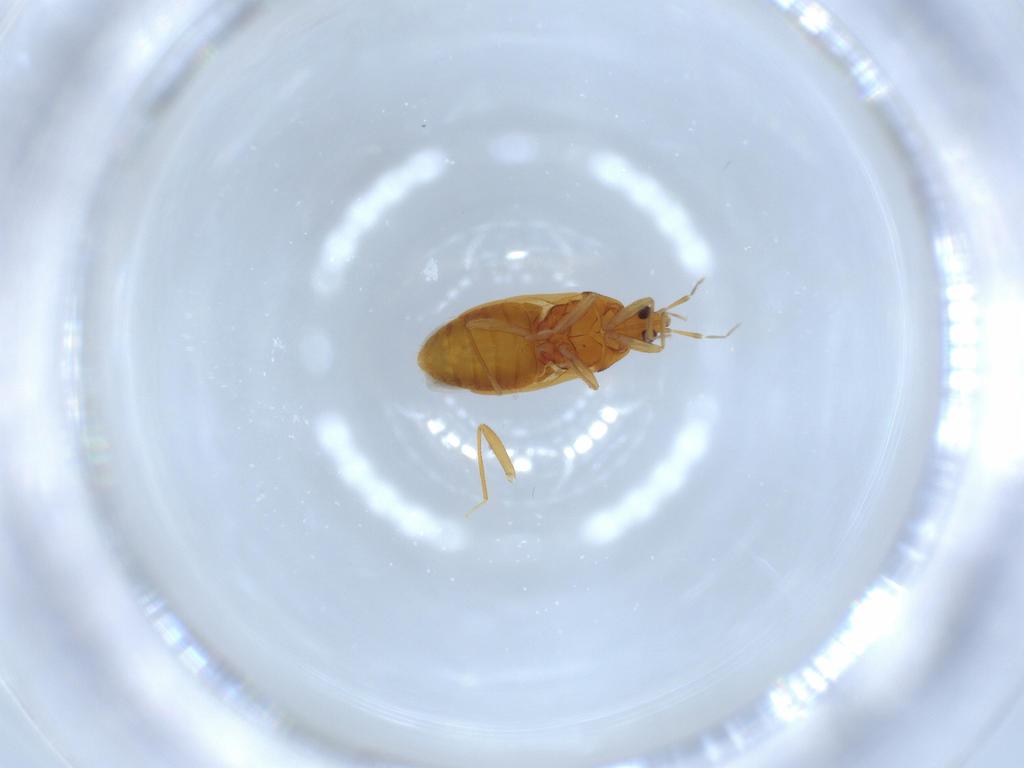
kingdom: Animalia
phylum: Arthropoda
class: Insecta
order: Hemiptera
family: Anthocoridae
